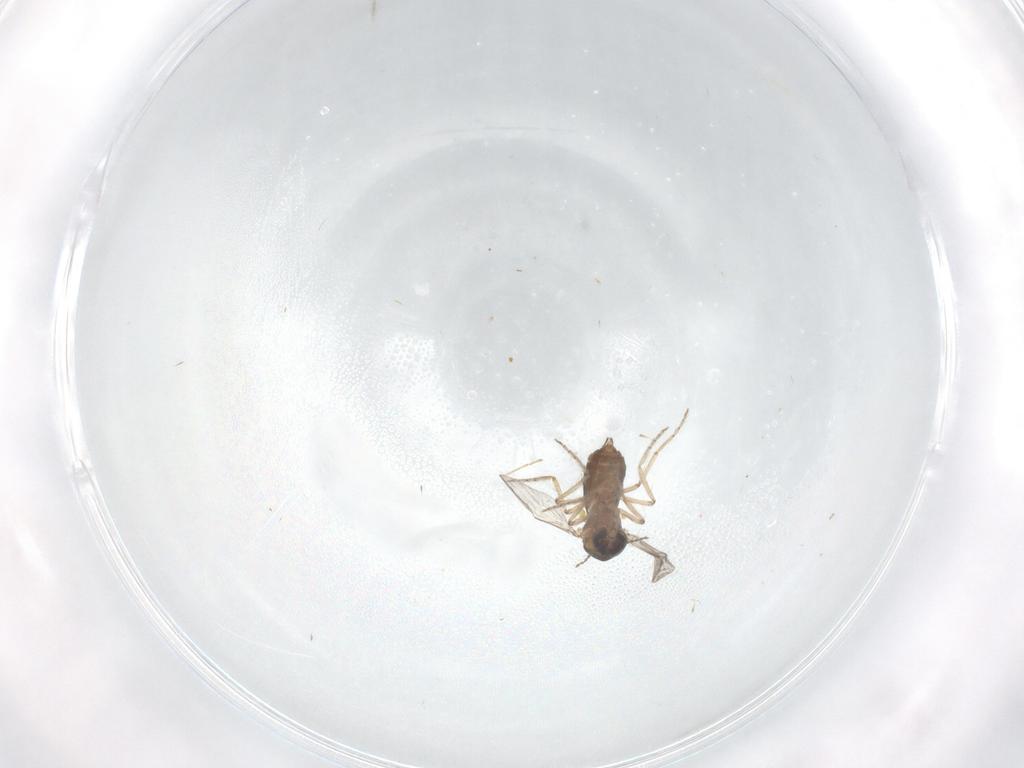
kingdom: Animalia
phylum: Arthropoda
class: Insecta
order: Diptera
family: Ceratopogonidae
